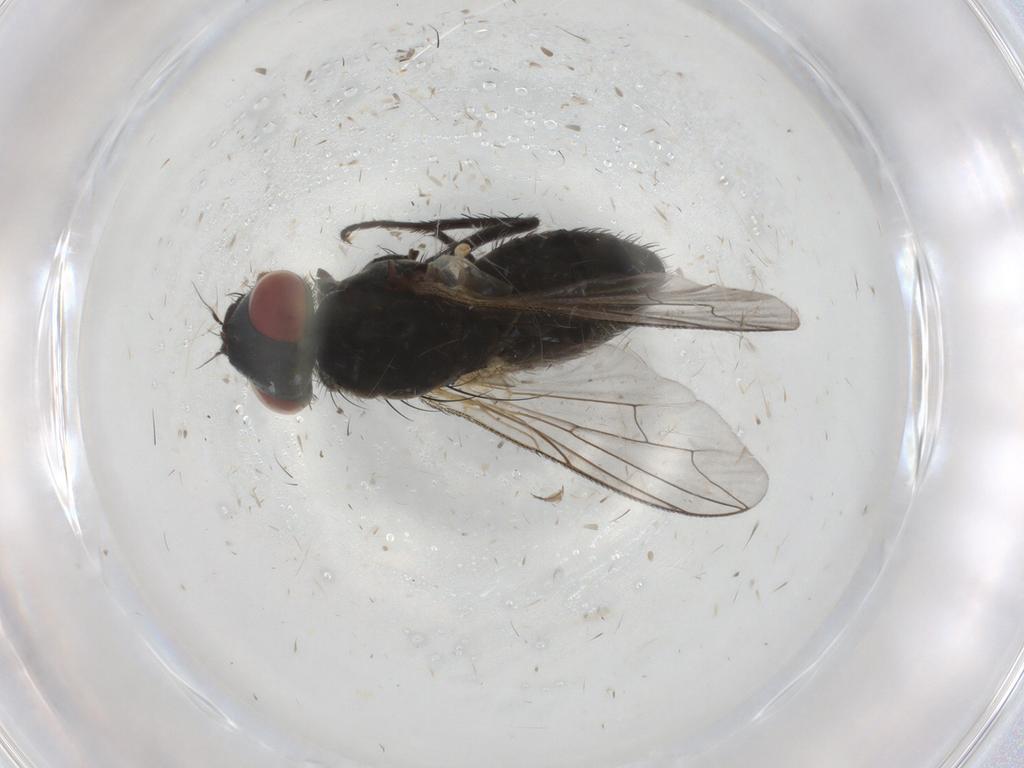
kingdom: Animalia
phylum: Arthropoda
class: Insecta
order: Diptera
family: Sarcophagidae
